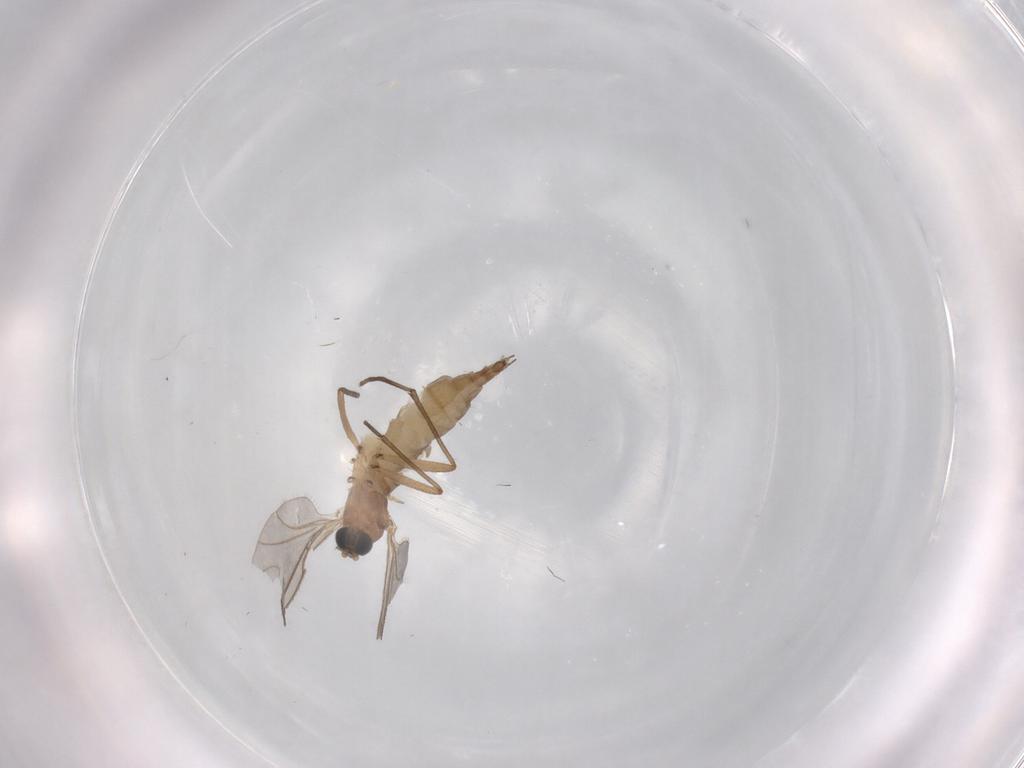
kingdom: Animalia
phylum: Arthropoda
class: Insecta
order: Diptera
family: Sciaridae
